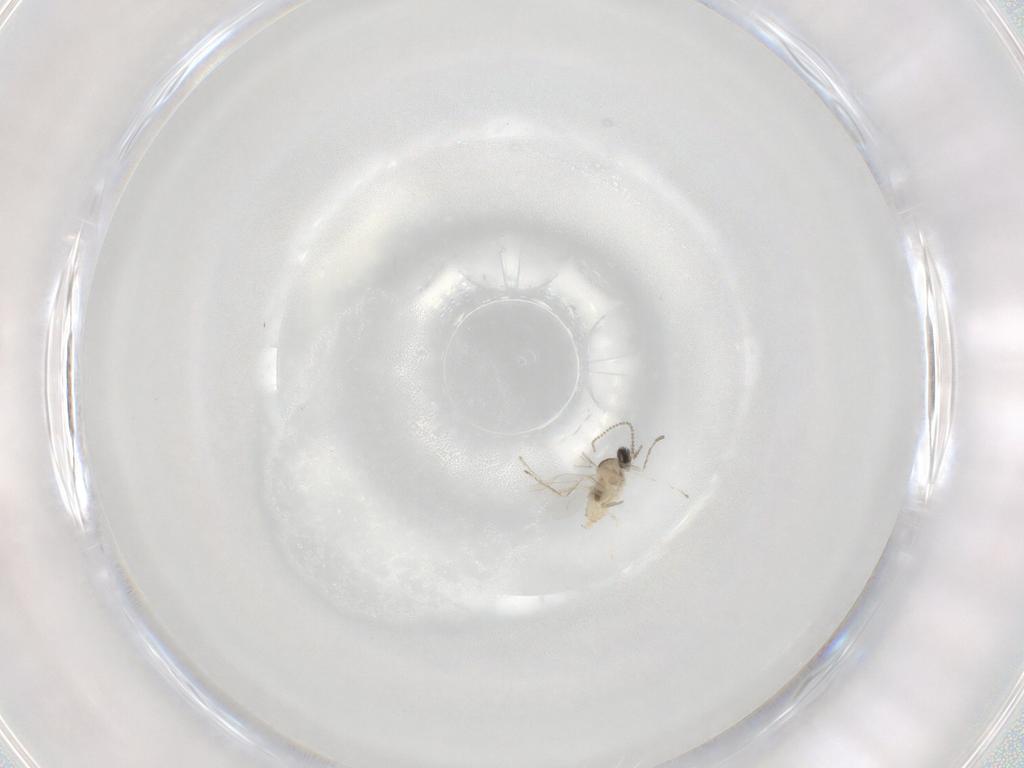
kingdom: Animalia
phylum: Arthropoda
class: Insecta
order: Diptera
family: Cecidomyiidae
